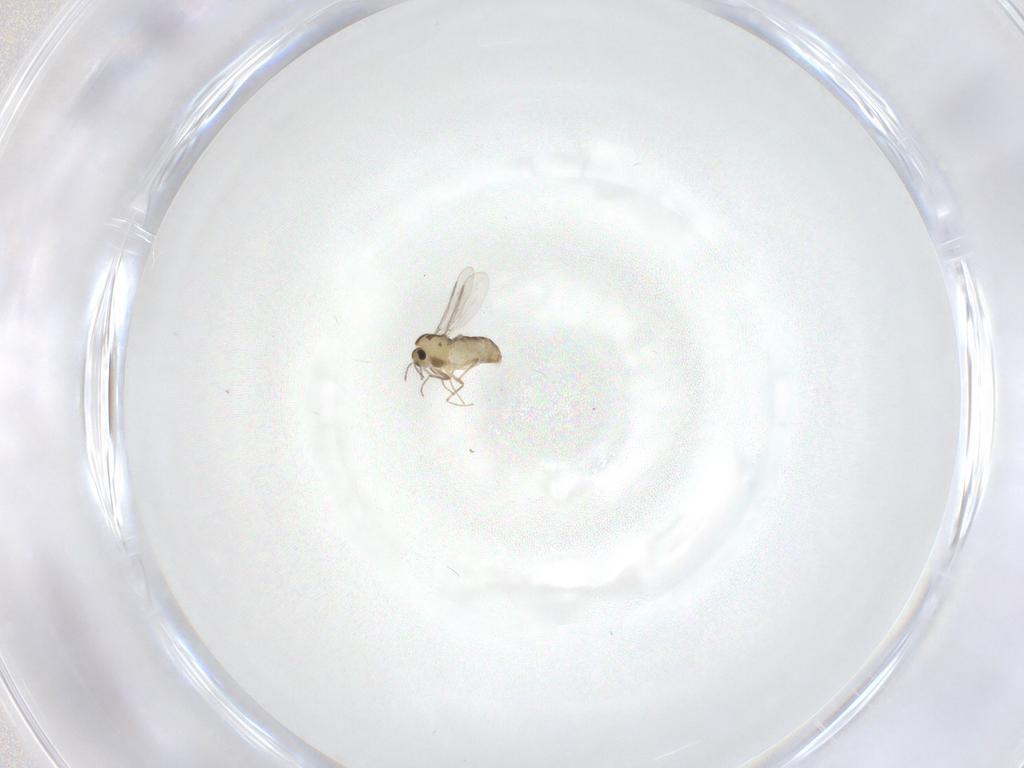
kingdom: Animalia
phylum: Arthropoda
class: Insecta
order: Diptera
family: Chironomidae
